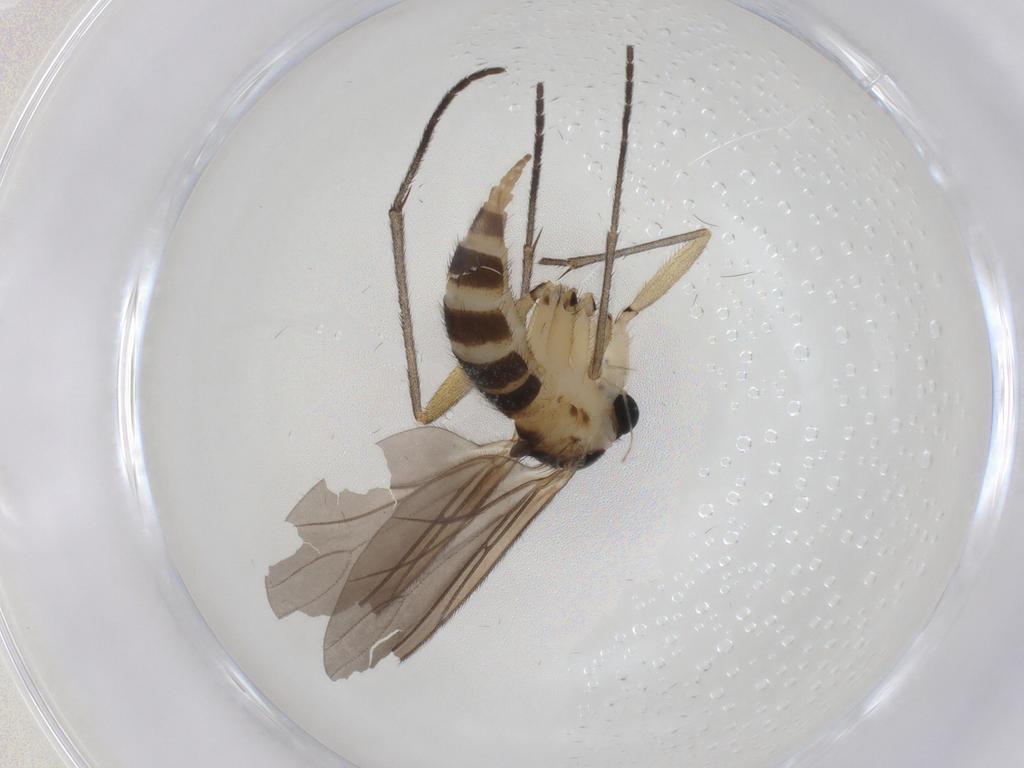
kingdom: Animalia
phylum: Arthropoda
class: Insecta
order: Diptera
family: Cecidomyiidae
